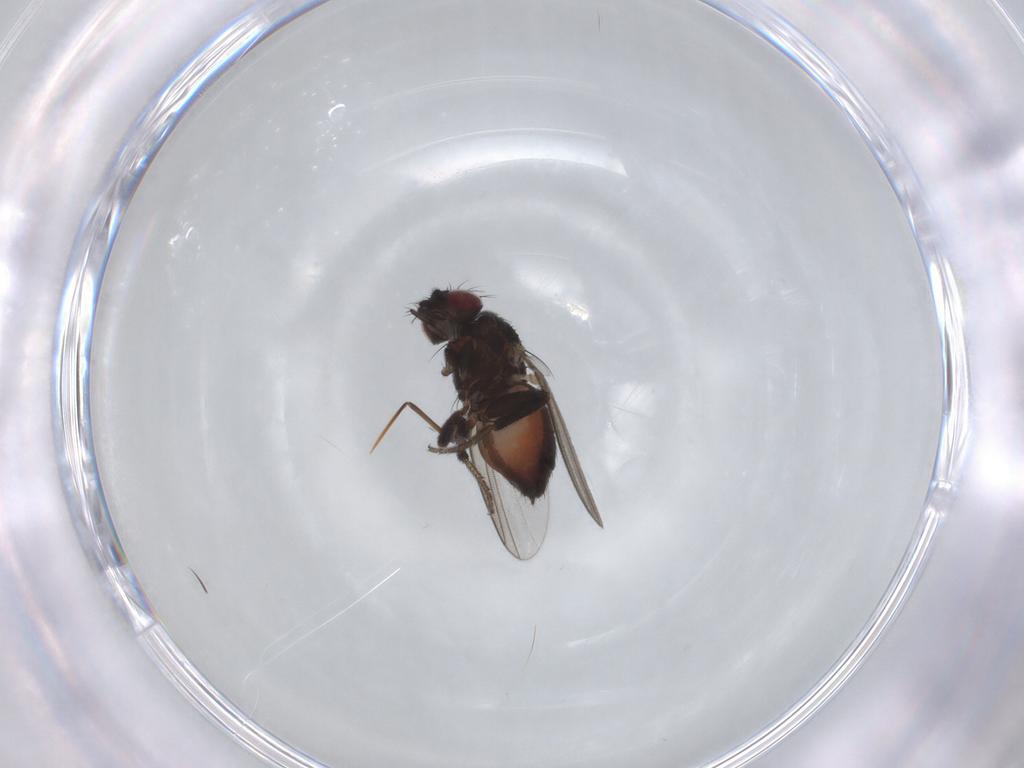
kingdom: Animalia
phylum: Arthropoda
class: Insecta
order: Diptera
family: Milichiidae
